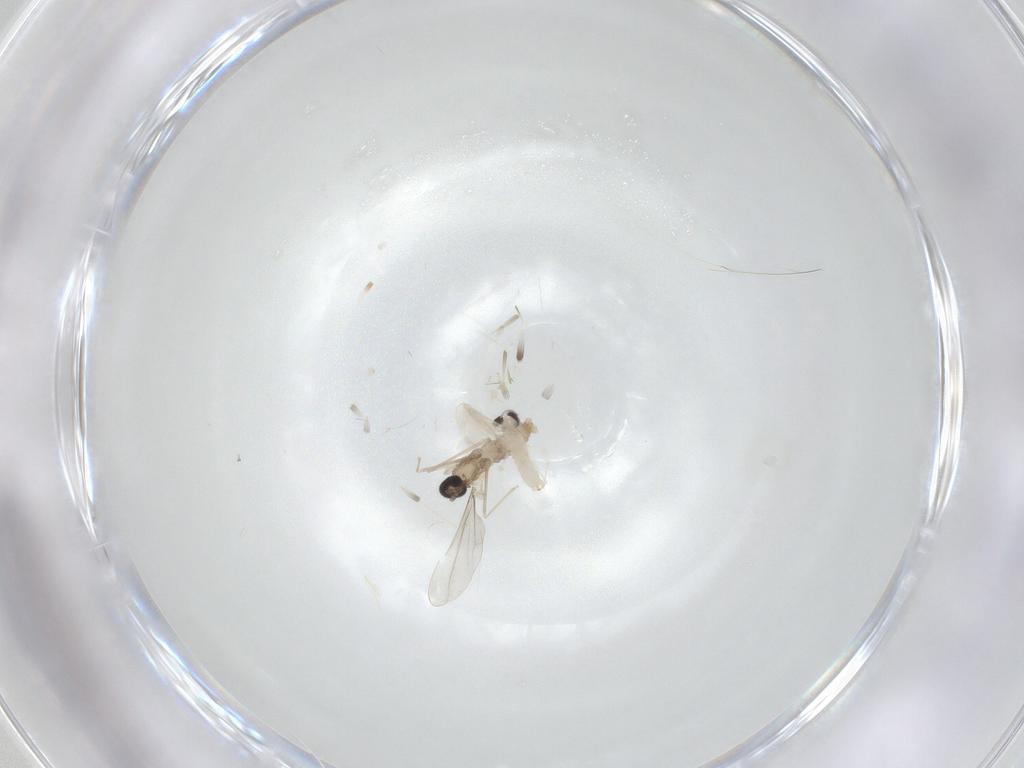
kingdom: Animalia
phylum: Arthropoda
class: Insecta
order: Diptera
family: Cecidomyiidae
